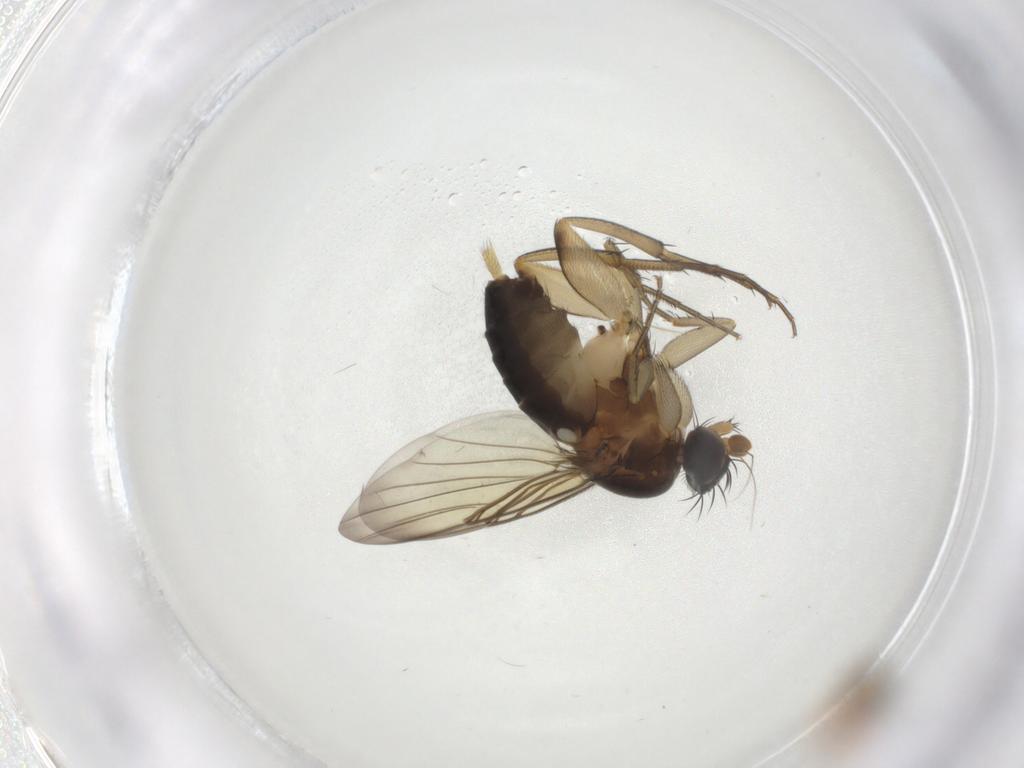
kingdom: Animalia
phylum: Arthropoda
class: Insecta
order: Diptera
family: Phoridae
